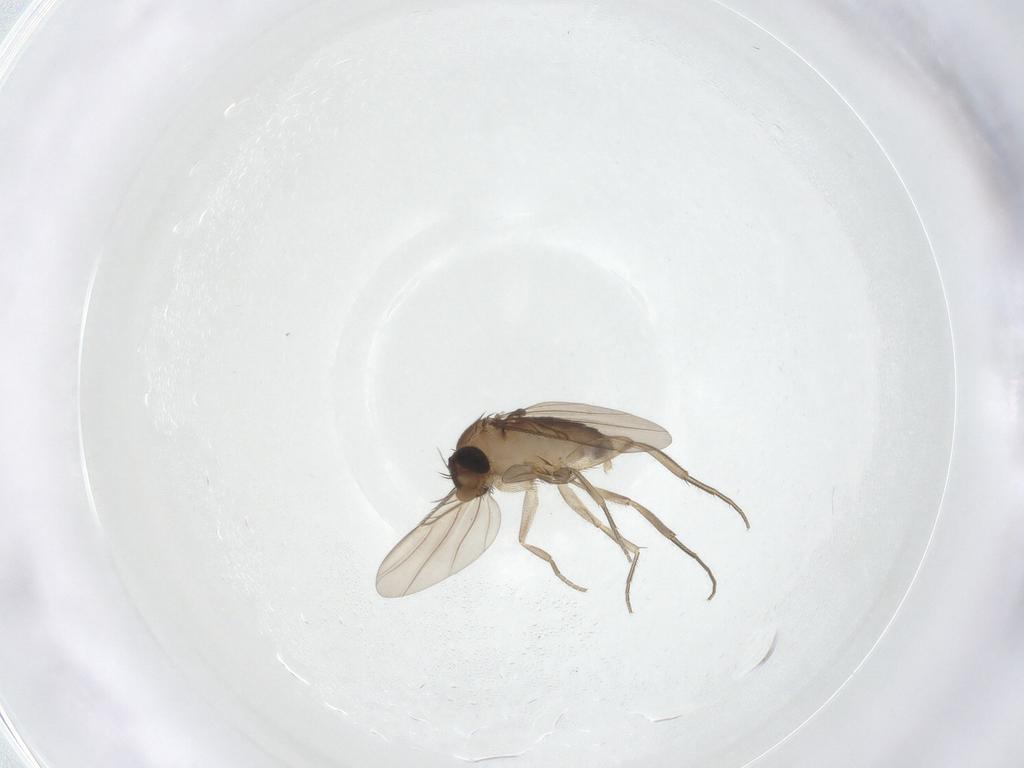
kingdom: Animalia
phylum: Arthropoda
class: Insecta
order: Diptera
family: Phoridae
